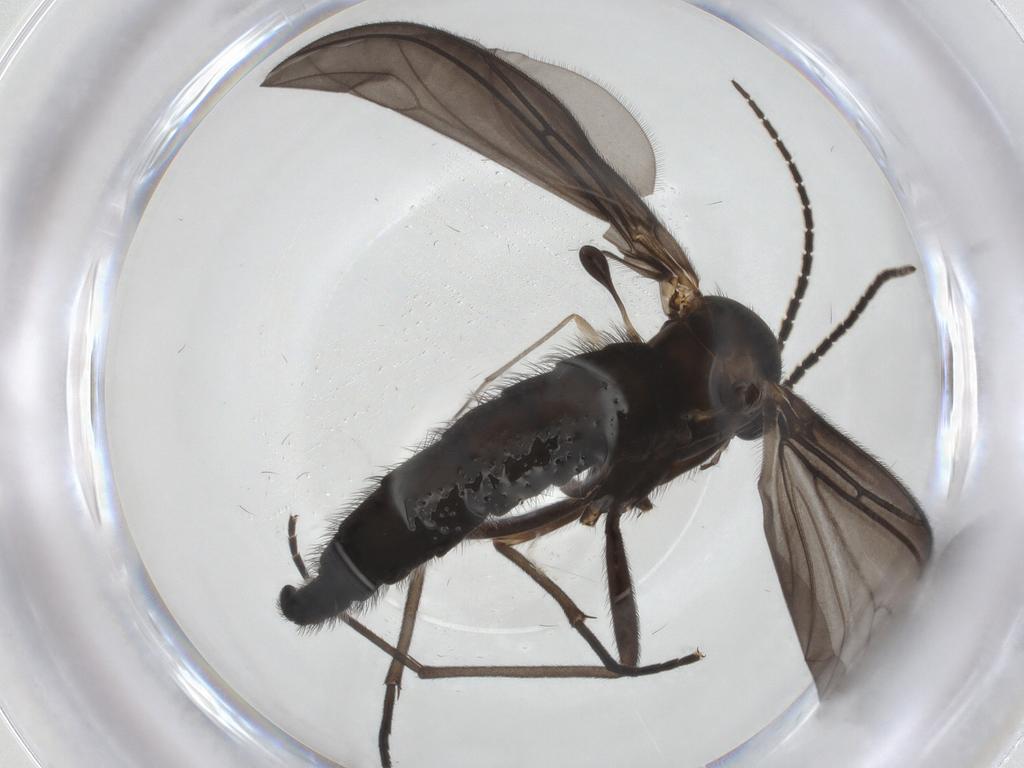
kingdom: Animalia
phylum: Arthropoda
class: Insecta
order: Diptera
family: Sciaridae
